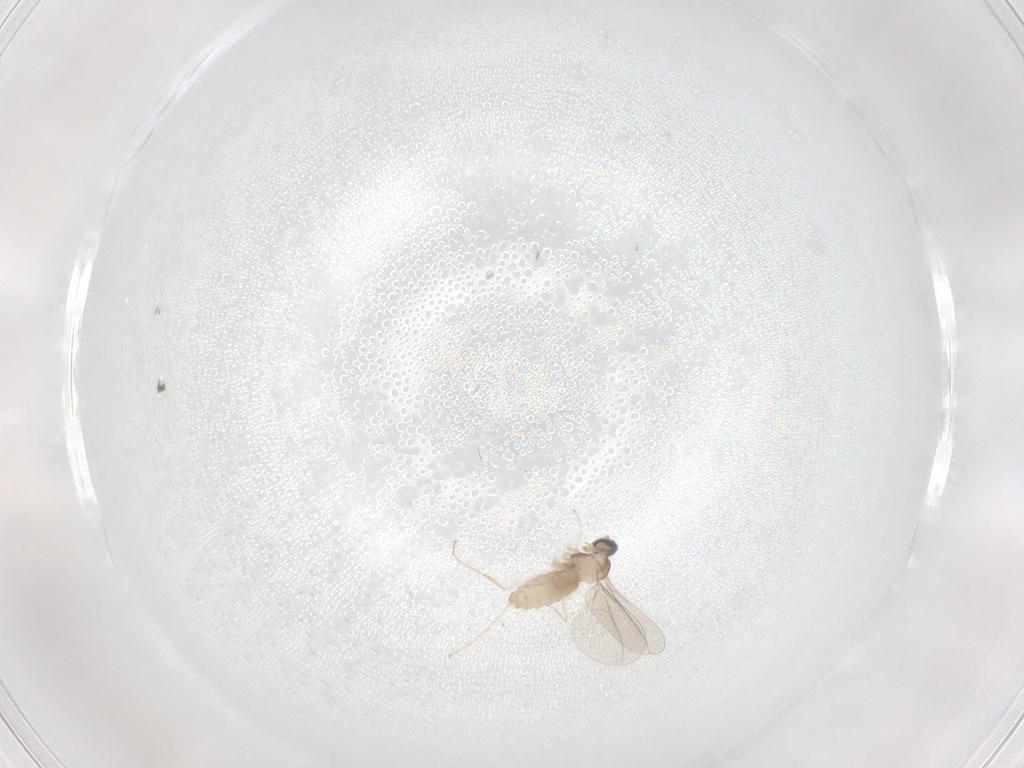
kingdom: Animalia
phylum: Arthropoda
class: Insecta
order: Diptera
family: Cecidomyiidae
